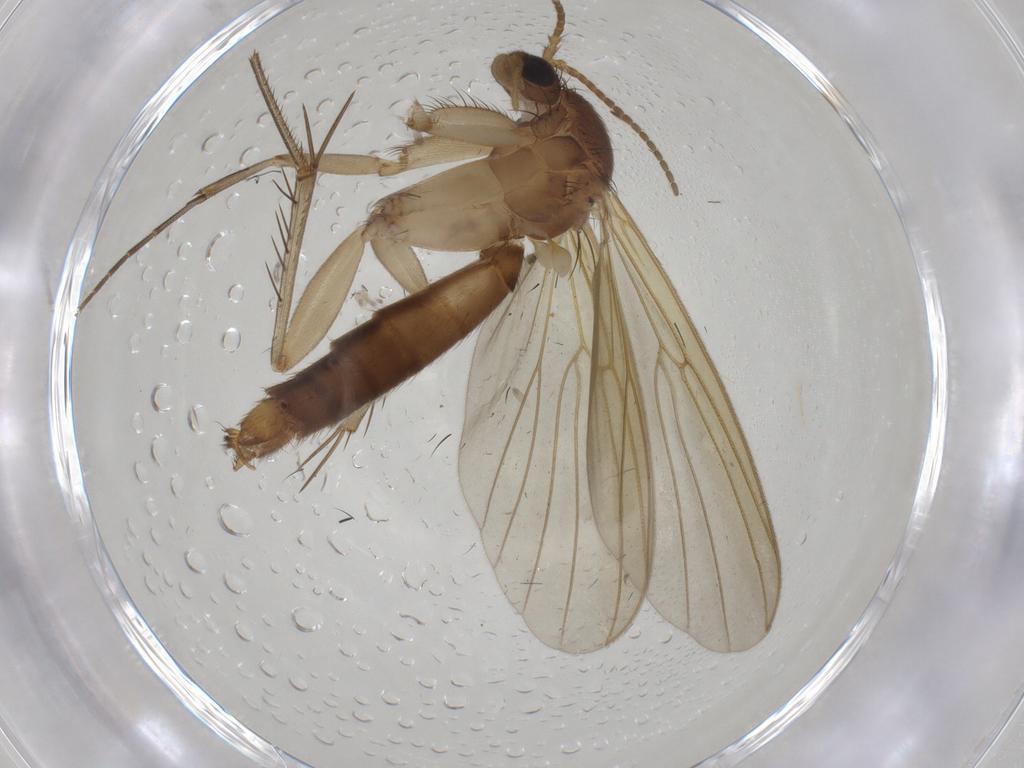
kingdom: Animalia
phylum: Arthropoda
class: Insecta
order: Diptera
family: Mycetophilidae
